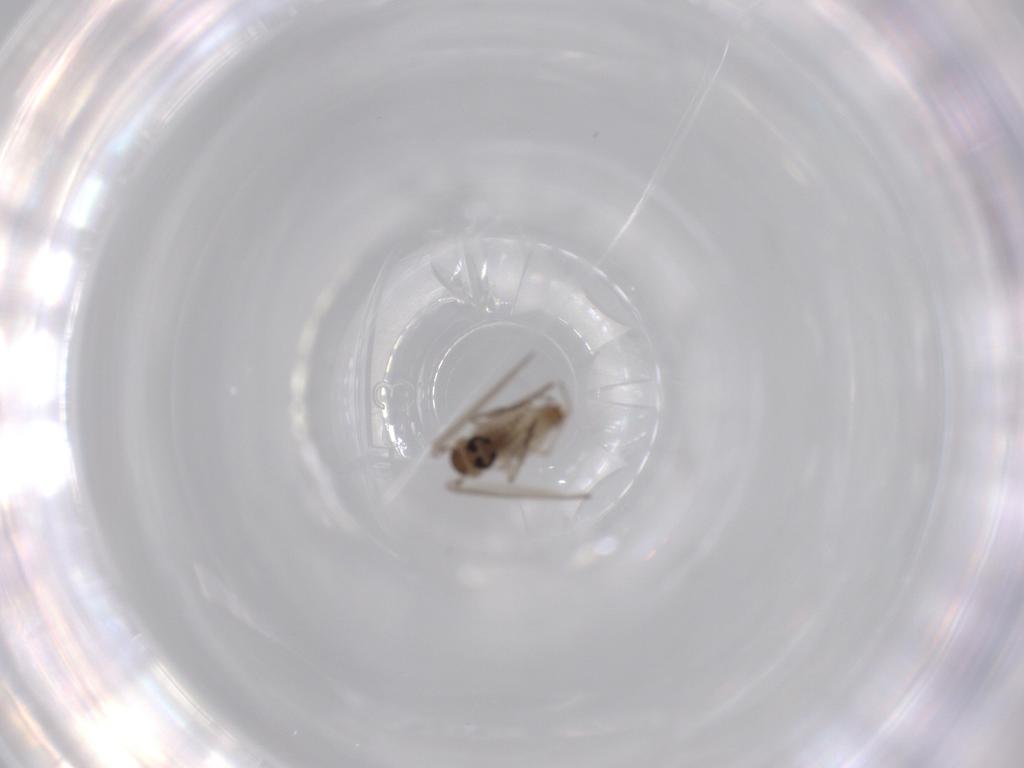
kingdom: Animalia
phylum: Arthropoda
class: Insecta
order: Diptera
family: Psychodidae
